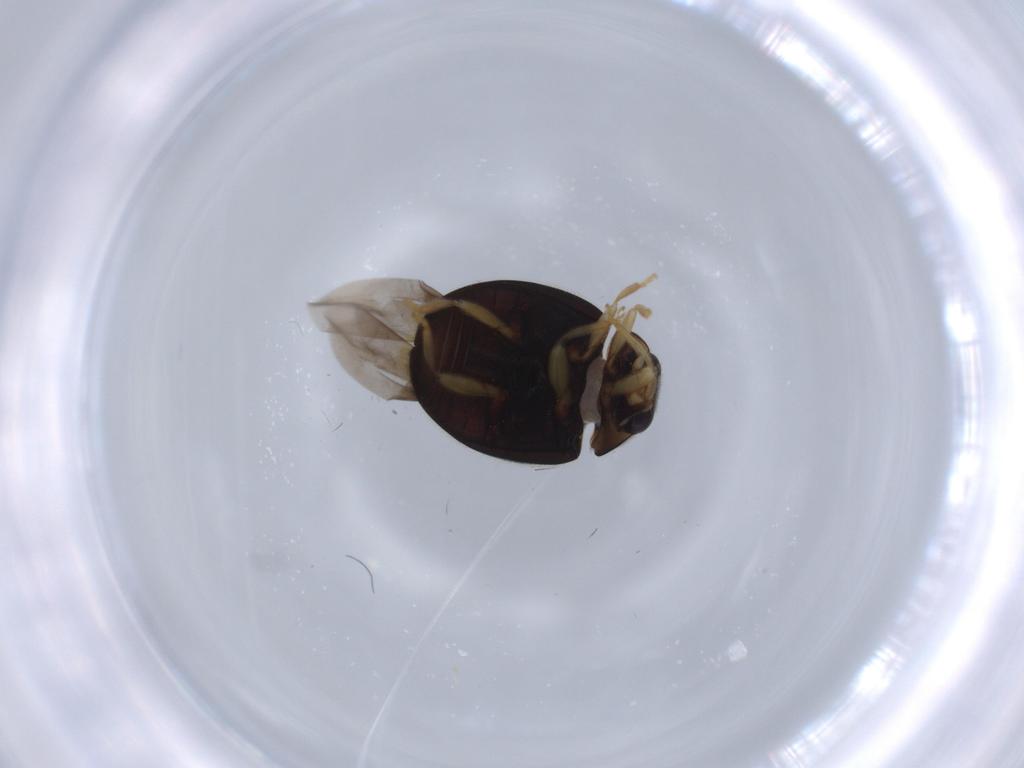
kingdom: Animalia
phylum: Arthropoda
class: Insecta
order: Coleoptera
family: Coccinellidae
